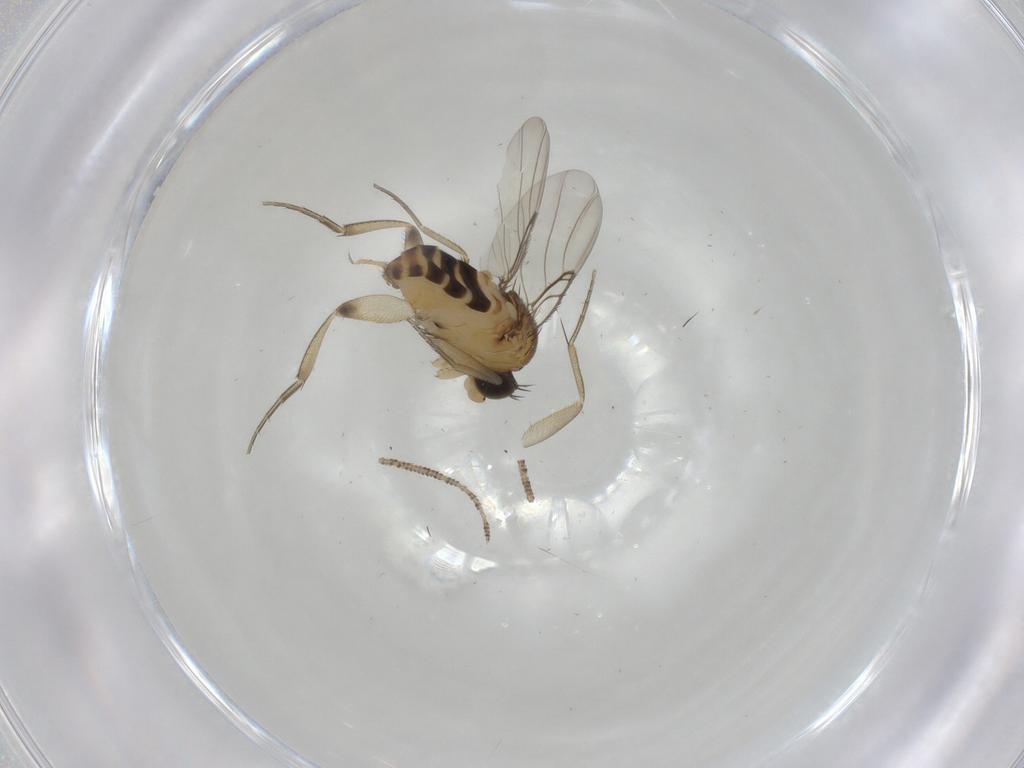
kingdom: Animalia
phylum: Arthropoda
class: Insecta
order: Diptera
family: Phoridae
